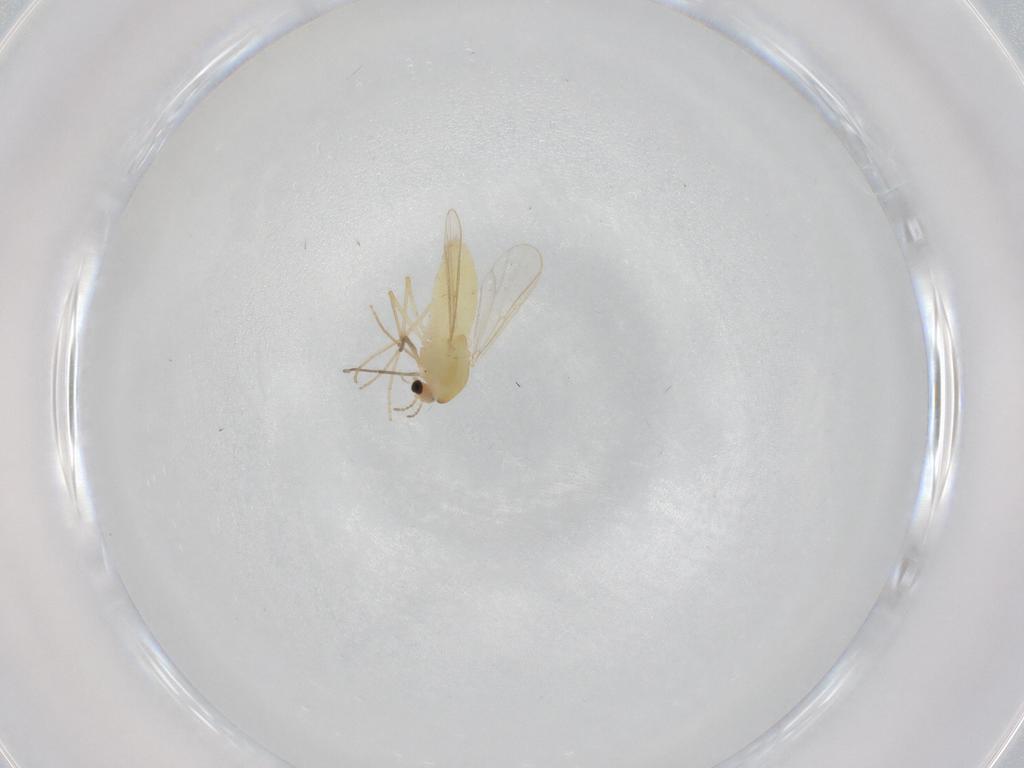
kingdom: Animalia
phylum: Arthropoda
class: Insecta
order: Diptera
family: Chironomidae
